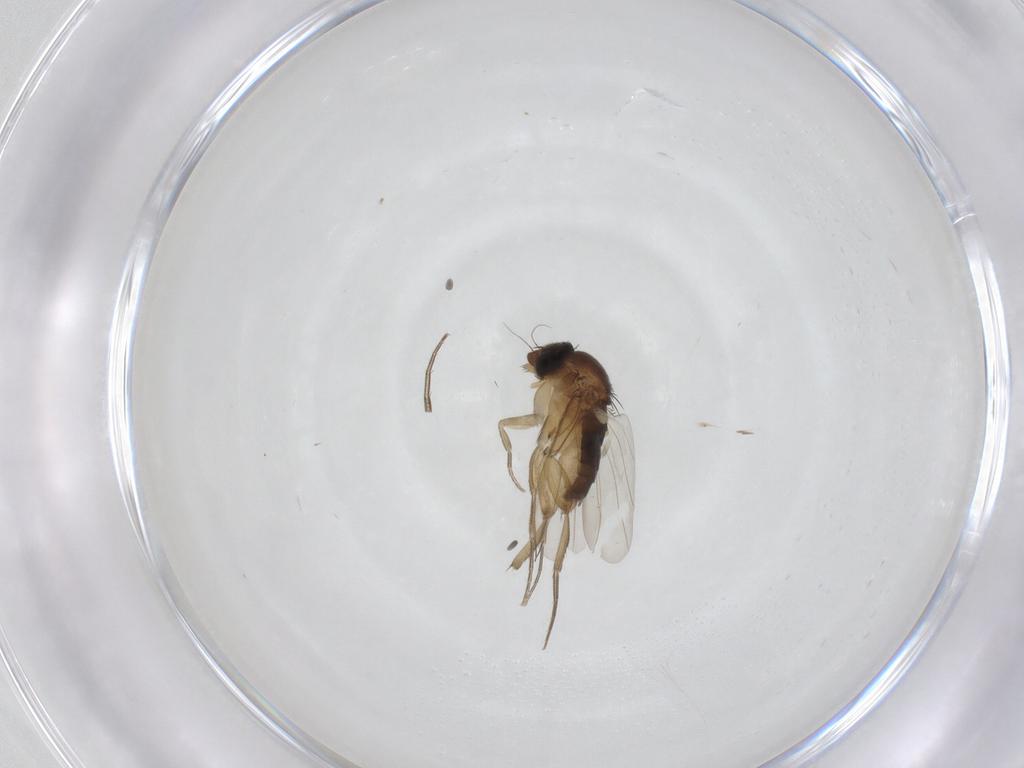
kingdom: Animalia
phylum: Arthropoda
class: Insecta
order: Diptera
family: Phoridae
